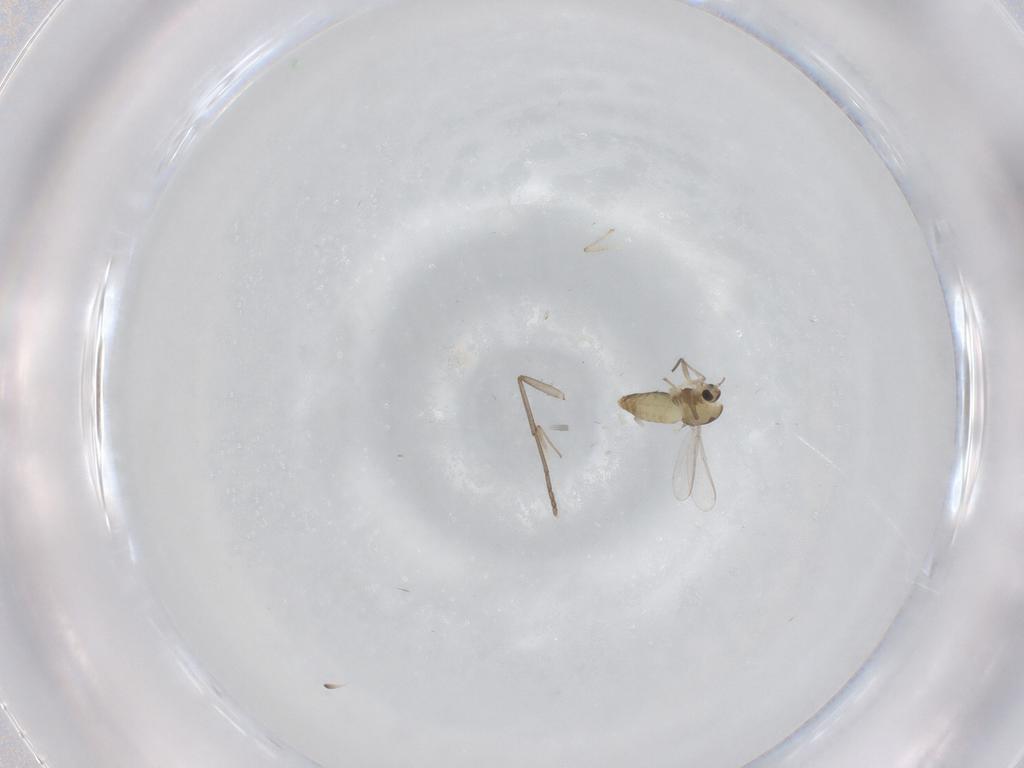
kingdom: Animalia
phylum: Arthropoda
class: Insecta
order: Diptera
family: Psychodidae
